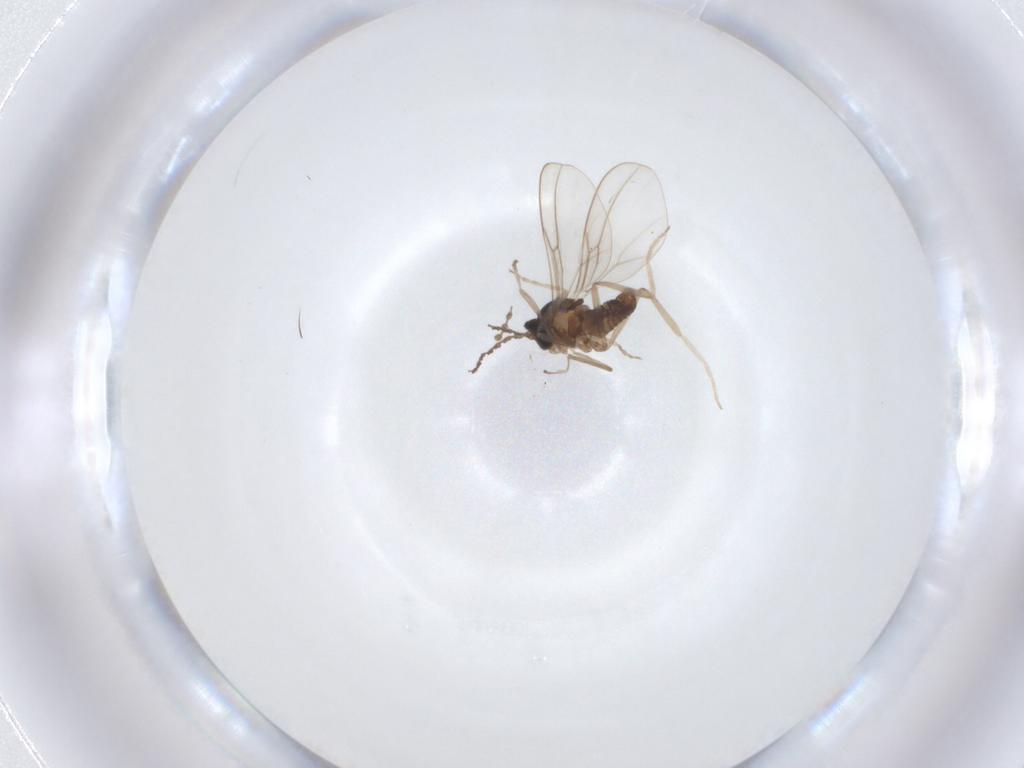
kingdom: Animalia
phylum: Arthropoda
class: Insecta
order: Diptera
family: Cecidomyiidae
